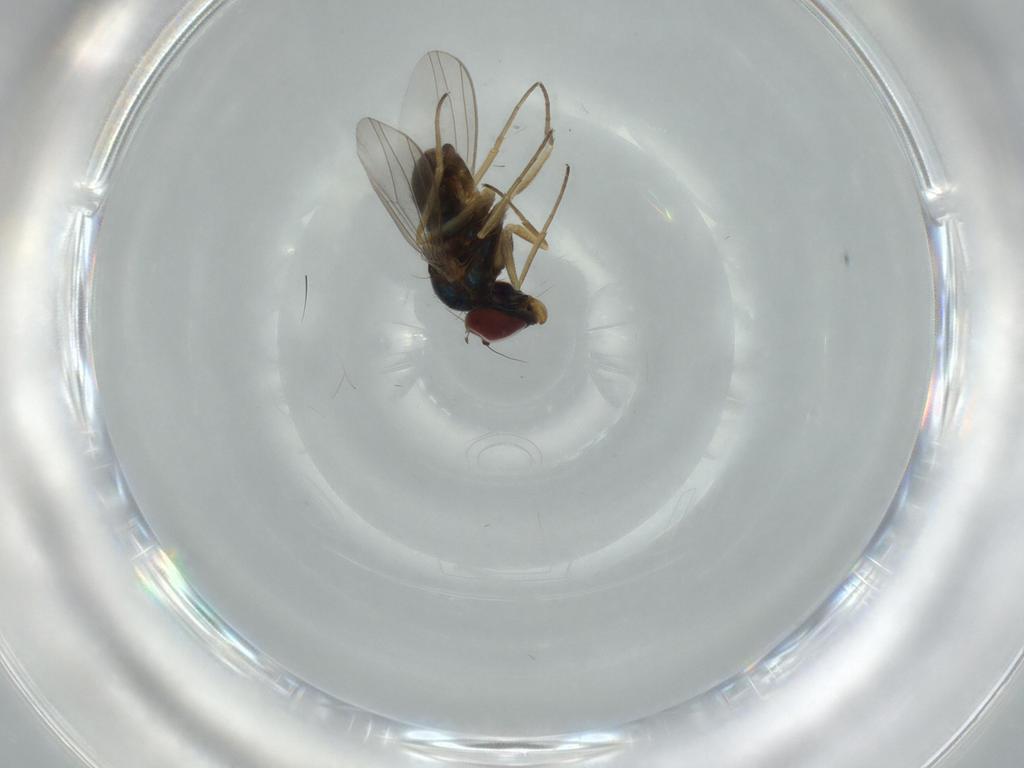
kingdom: Animalia
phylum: Arthropoda
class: Insecta
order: Diptera
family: Dolichopodidae
